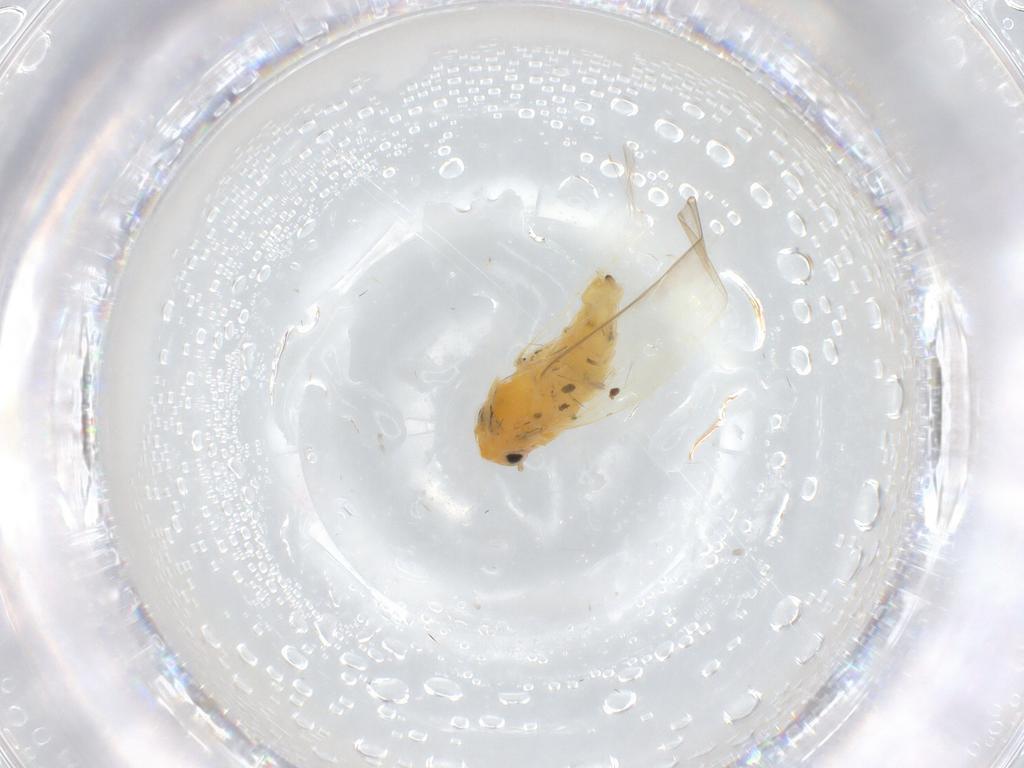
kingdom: Animalia
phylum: Arthropoda
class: Insecta
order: Hemiptera
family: Cicadellidae
